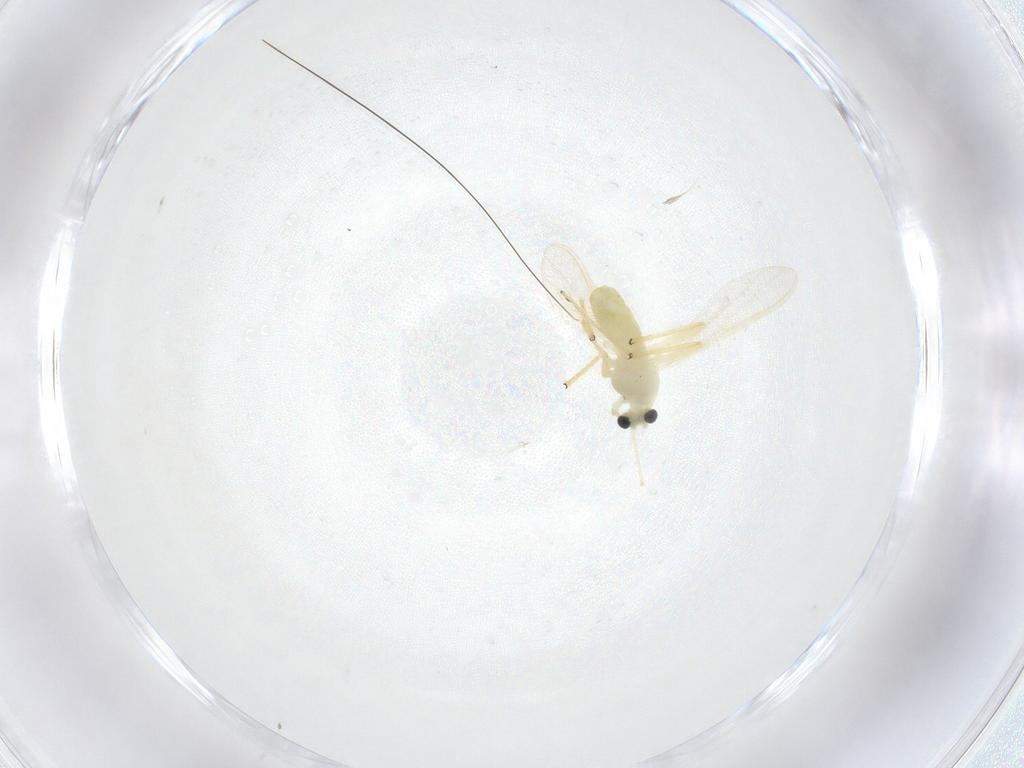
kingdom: Animalia
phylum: Arthropoda
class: Insecta
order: Diptera
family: Chironomidae
